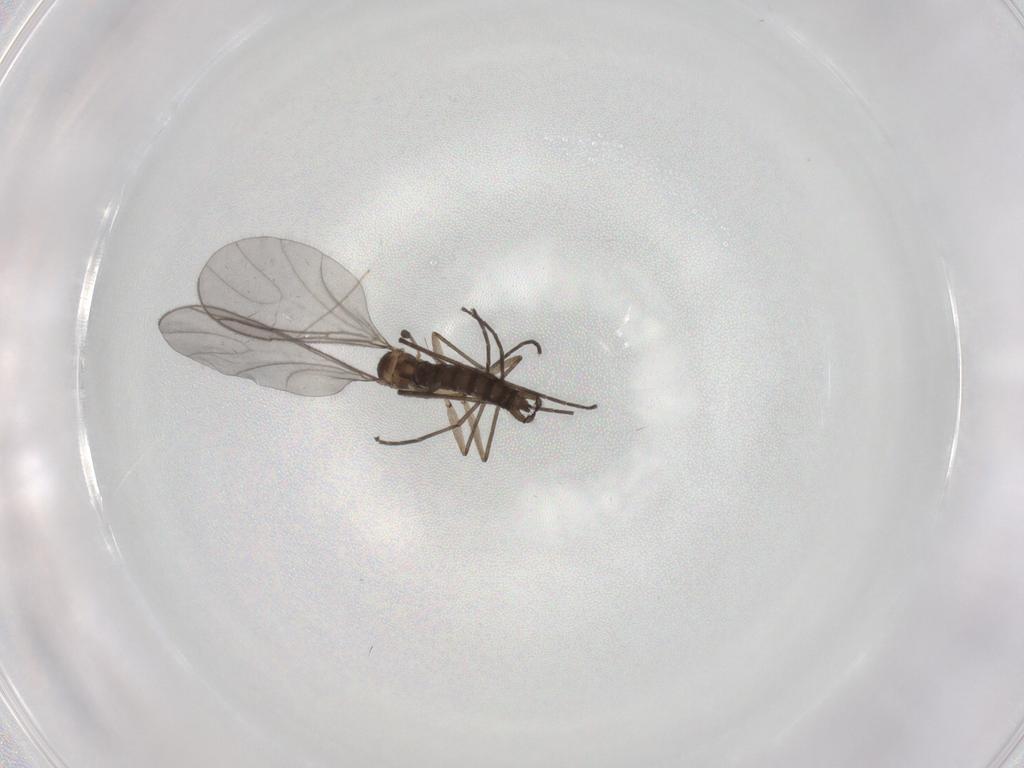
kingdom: Animalia
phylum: Arthropoda
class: Insecta
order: Diptera
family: Sciaridae
